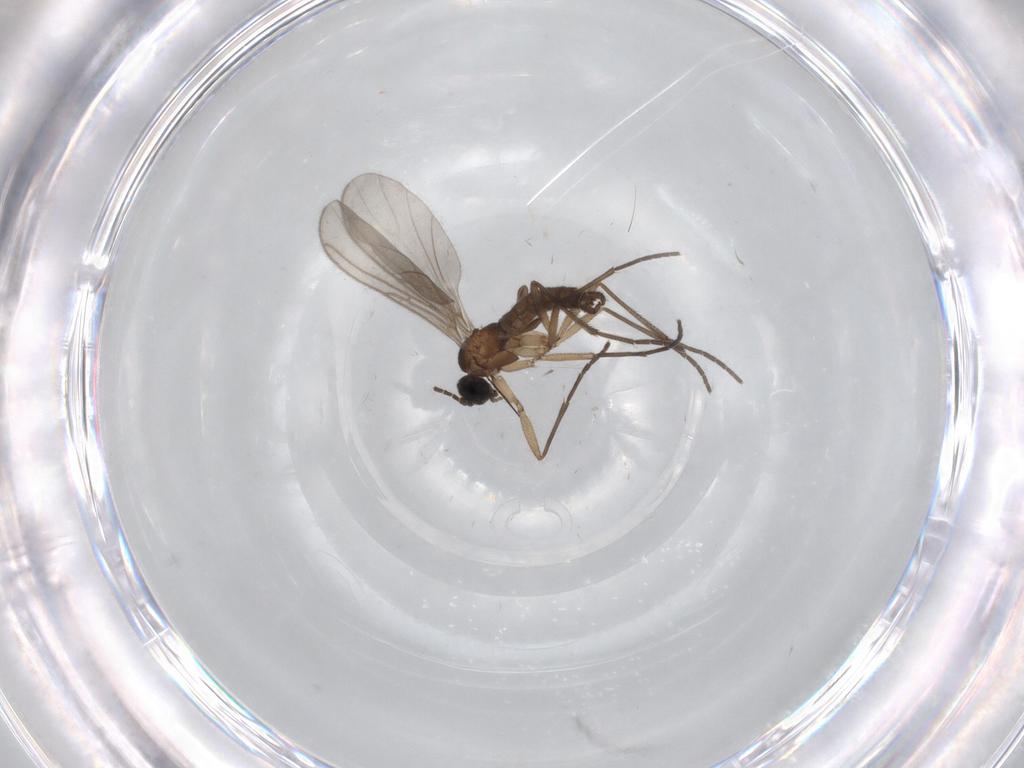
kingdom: Animalia
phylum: Arthropoda
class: Insecta
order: Diptera
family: Sciaridae
